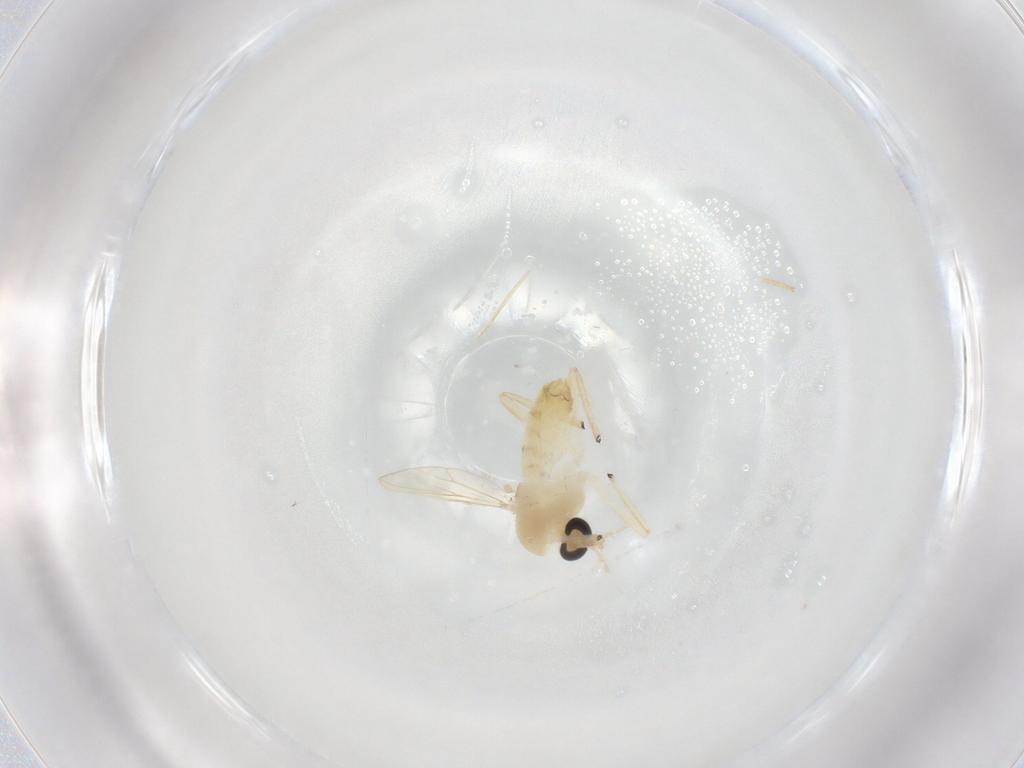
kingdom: Animalia
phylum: Arthropoda
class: Insecta
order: Diptera
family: Chironomidae
